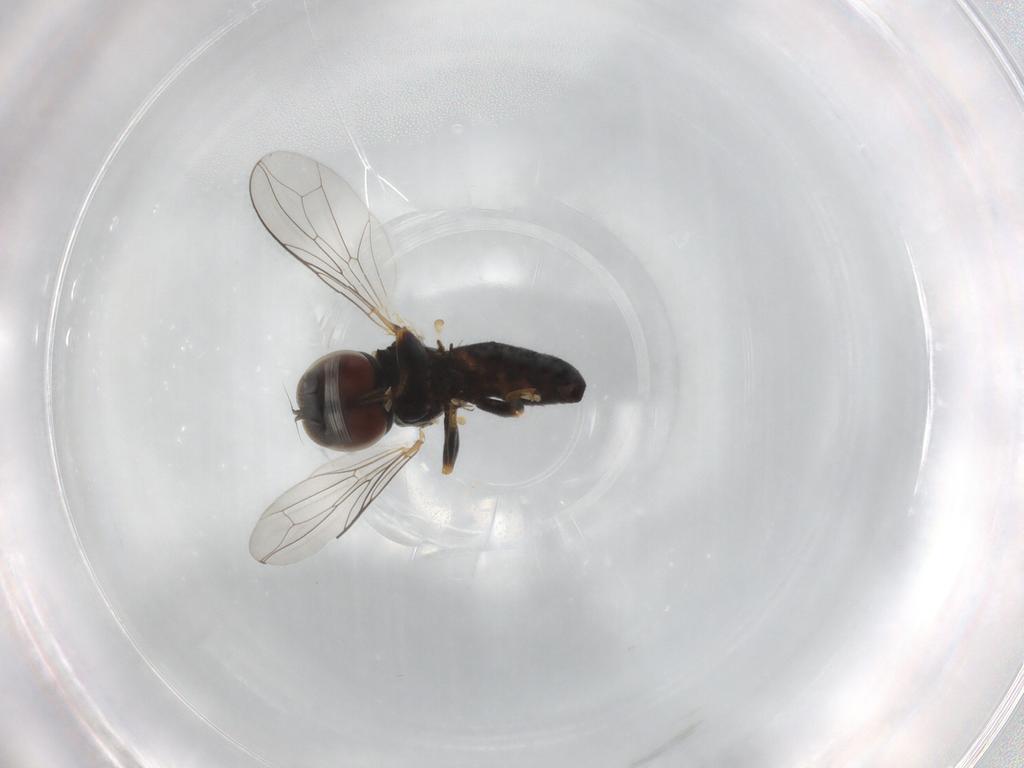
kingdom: Animalia
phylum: Arthropoda
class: Insecta
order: Diptera
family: Pipunculidae
